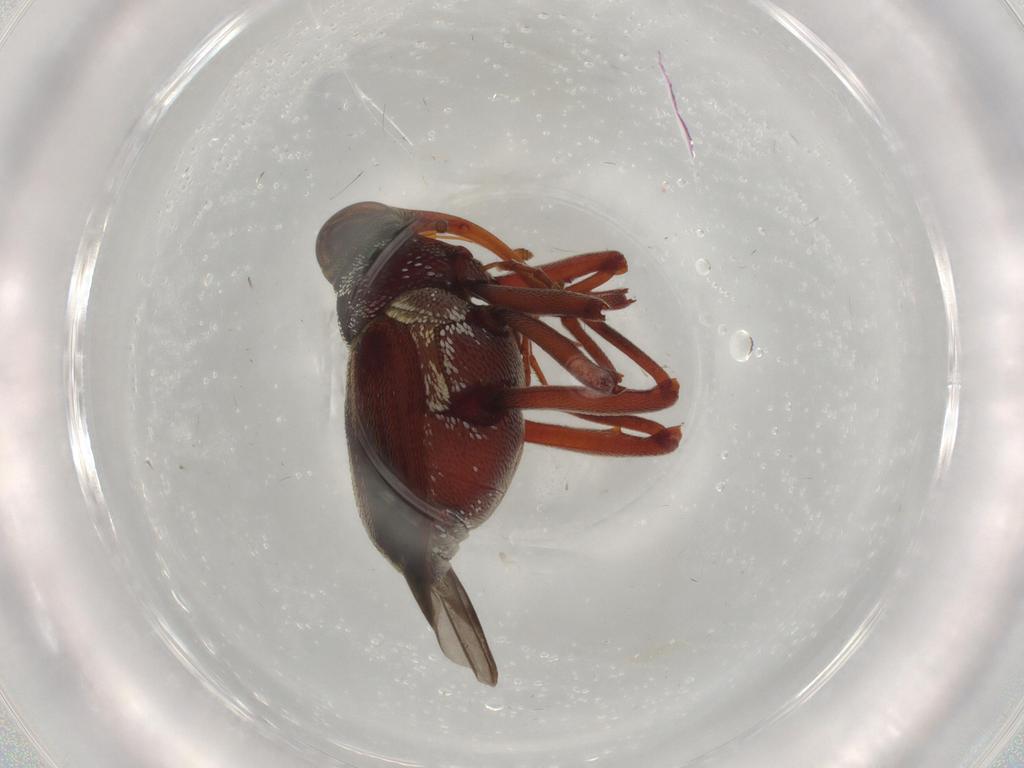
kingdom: Animalia
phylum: Arthropoda
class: Insecta
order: Coleoptera
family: Curculionidae
